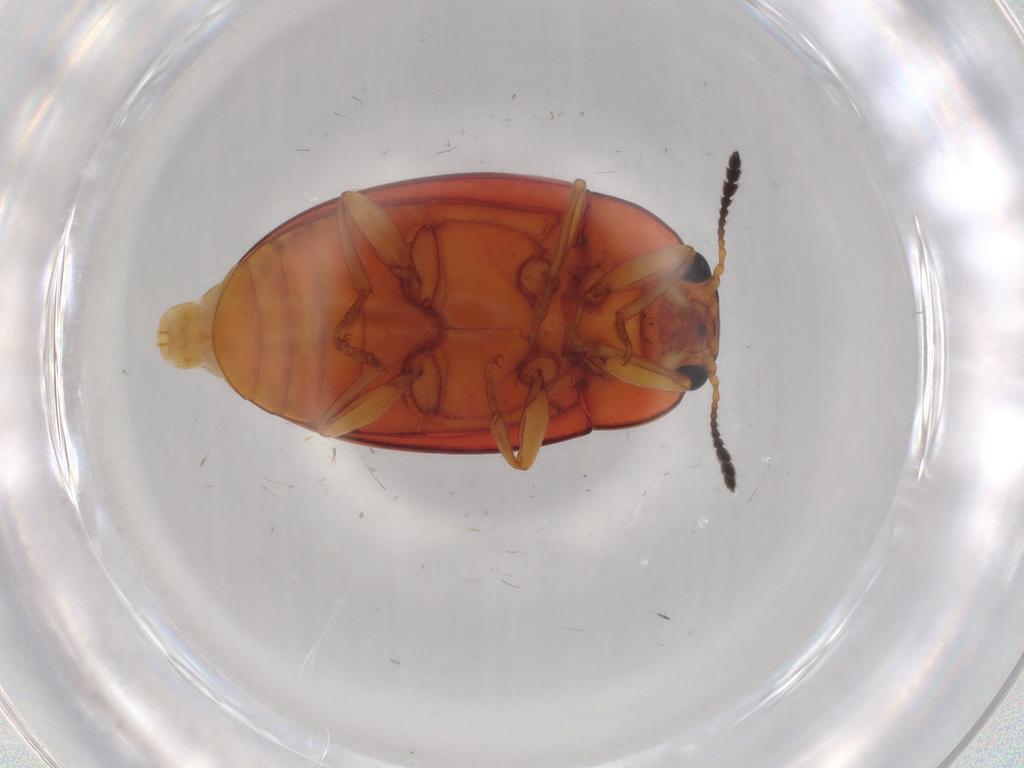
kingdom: Animalia
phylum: Arthropoda
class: Insecta
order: Coleoptera
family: Erotylidae
